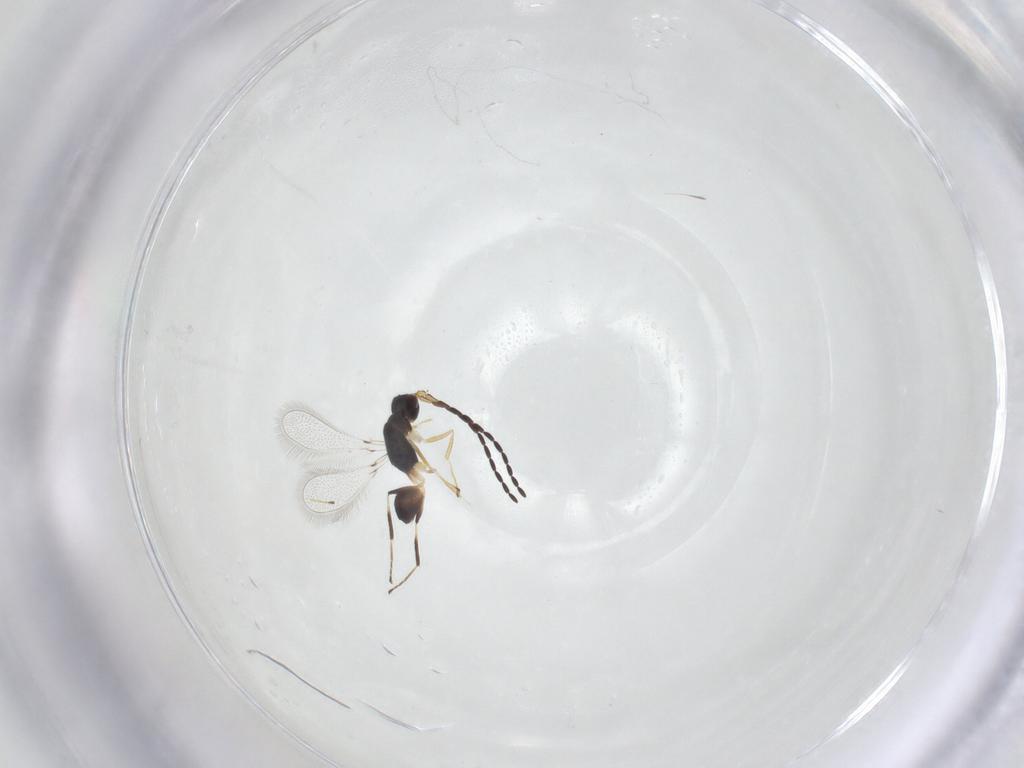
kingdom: Animalia
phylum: Arthropoda
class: Insecta
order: Hymenoptera
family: Mymaridae
